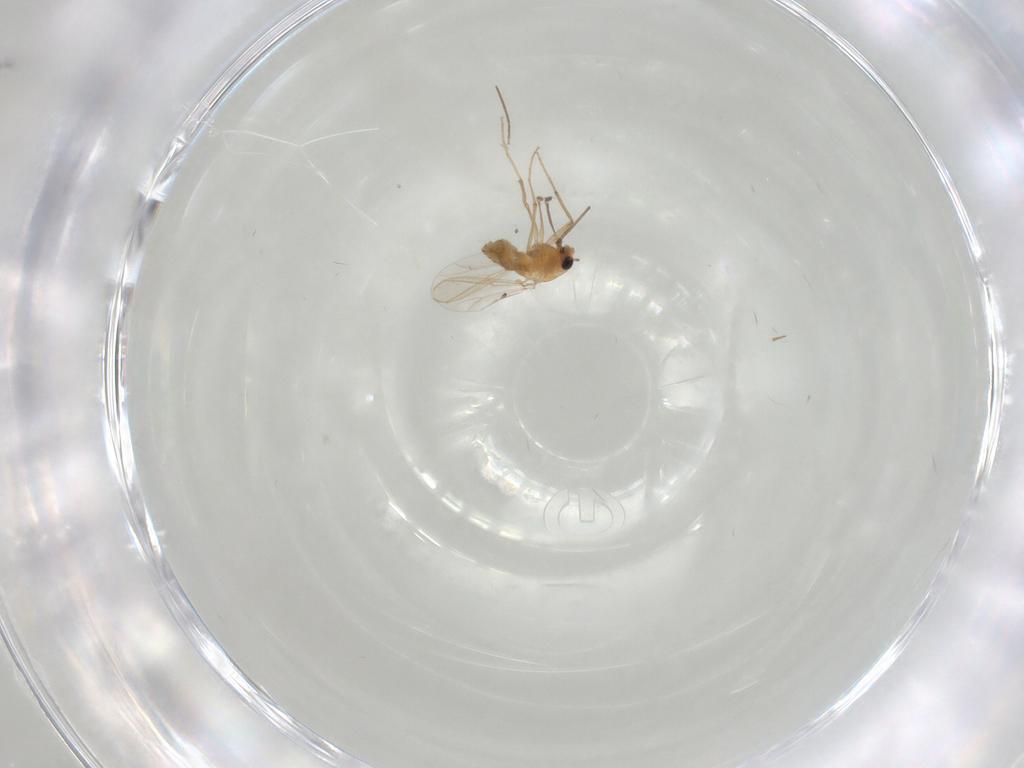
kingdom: Animalia
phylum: Arthropoda
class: Insecta
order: Diptera
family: Chironomidae
